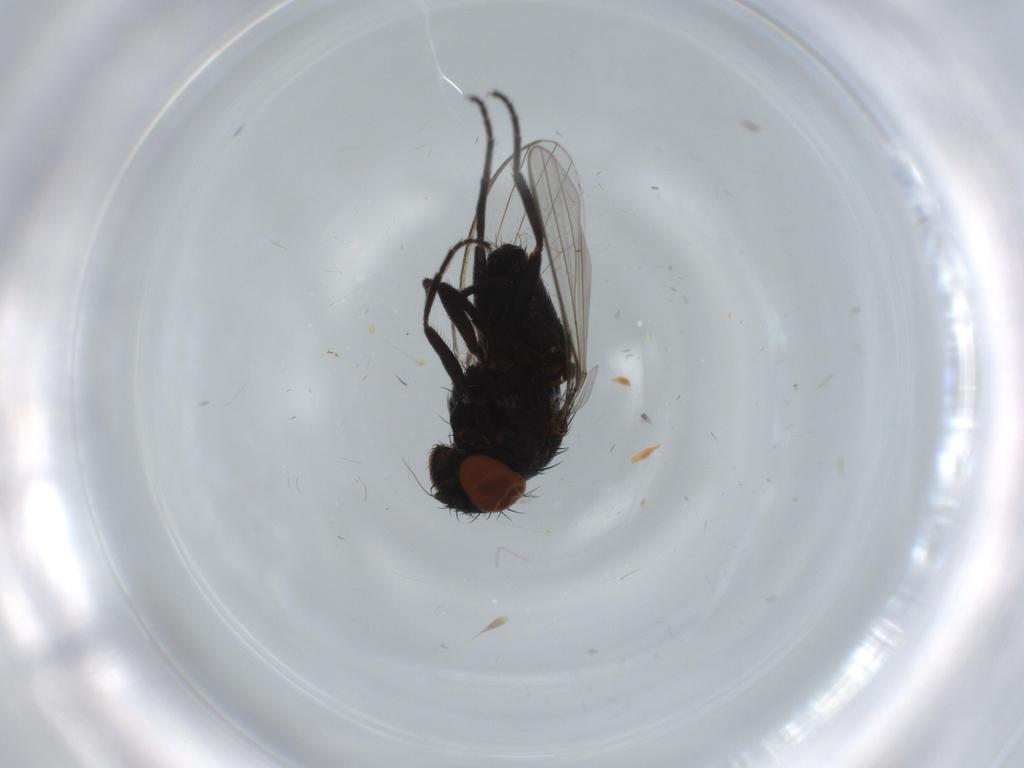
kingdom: Animalia
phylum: Arthropoda
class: Insecta
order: Diptera
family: Milichiidae
